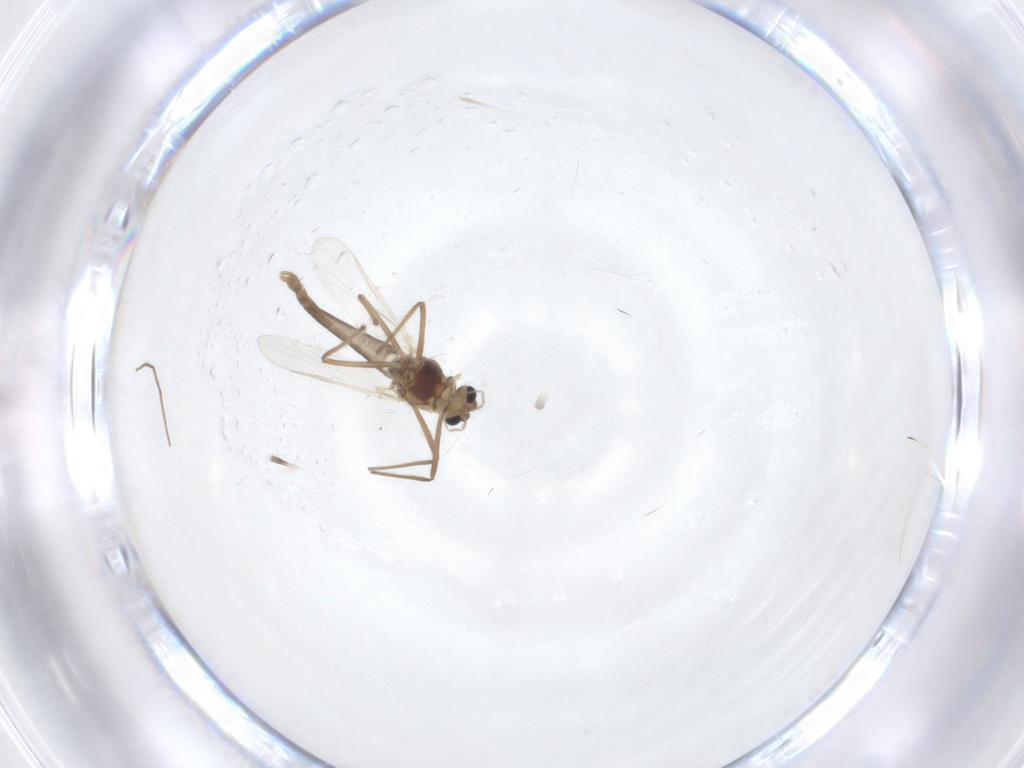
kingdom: Animalia
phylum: Arthropoda
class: Insecta
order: Diptera
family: Chironomidae
